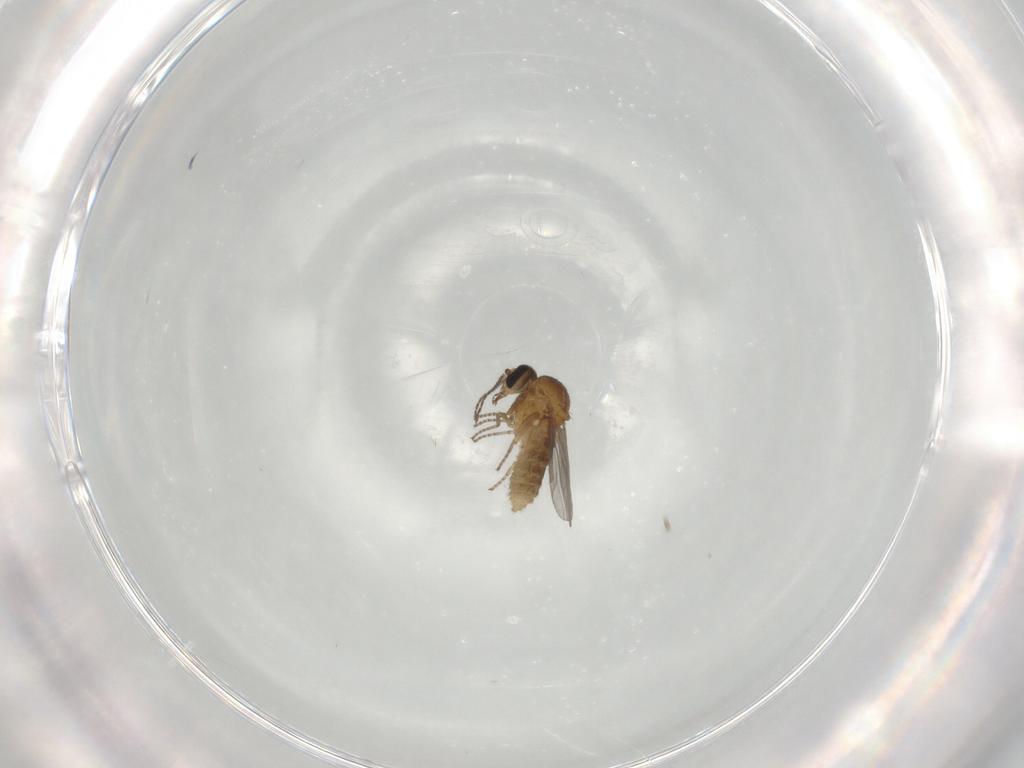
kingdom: Animalia
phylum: Arthropoda
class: Insecta
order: Diptera
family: Ceratopogonidae
